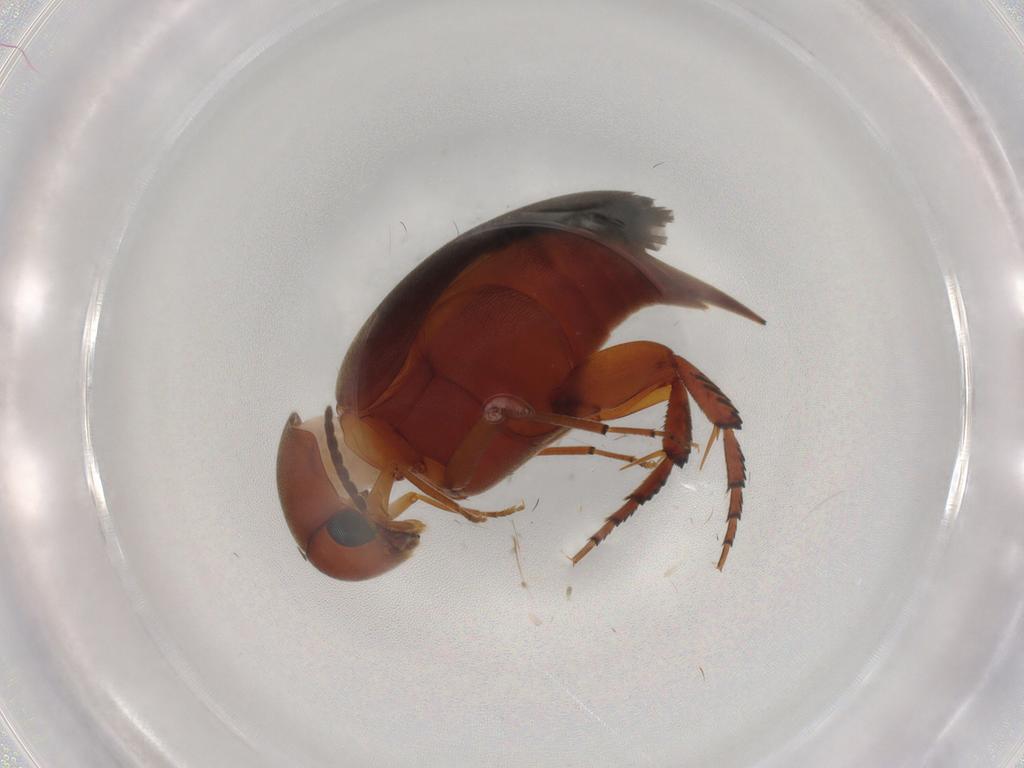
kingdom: Animalia
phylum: Arthropoda
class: Insecta
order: Coleoptera
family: Mordellidae
